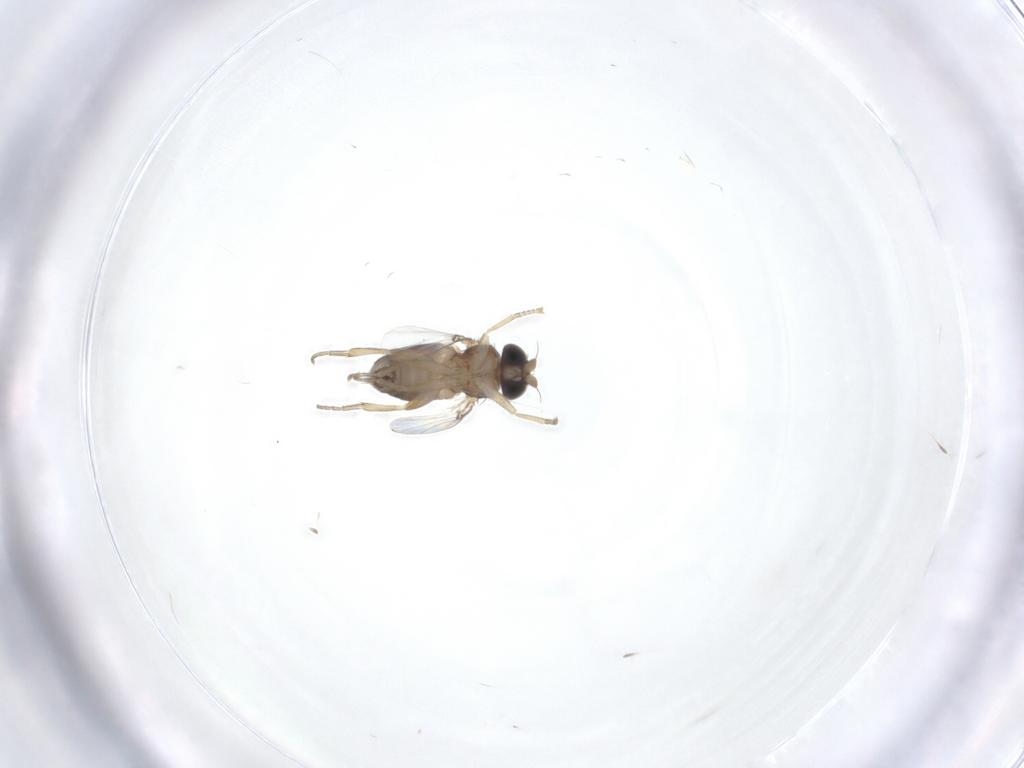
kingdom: Animalia
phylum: Arthropoda
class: Insecta
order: Diptera
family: Phoridae
